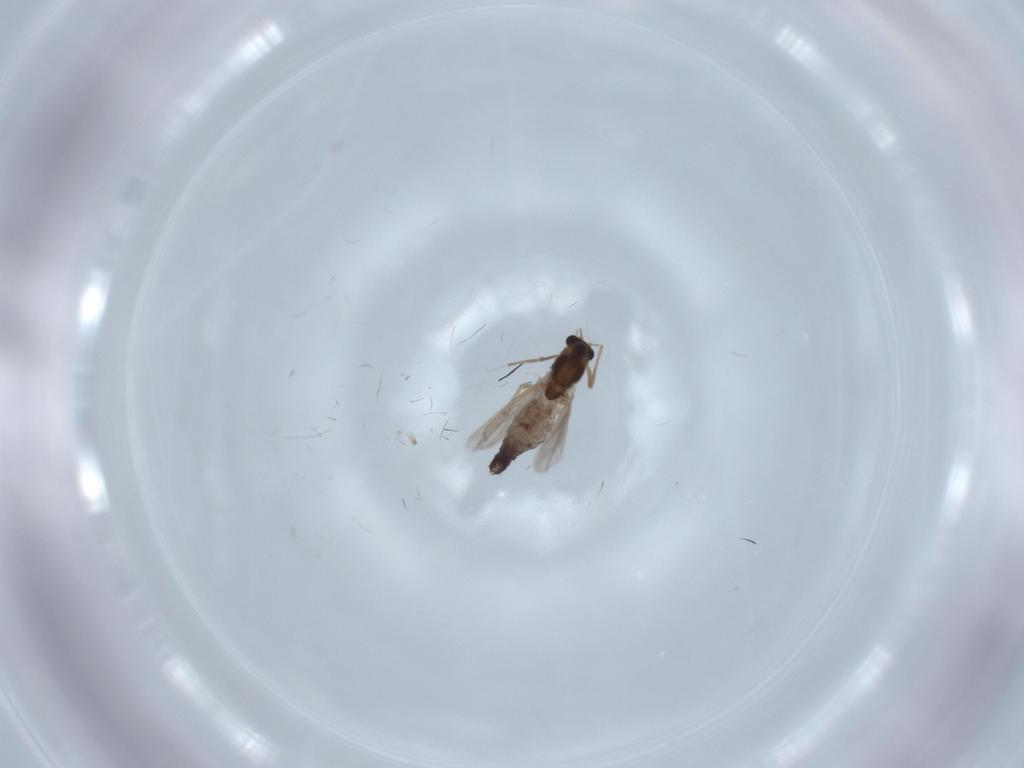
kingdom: Animalia
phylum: Arthropoda
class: Insecta
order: Diptera
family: Chironomidae
